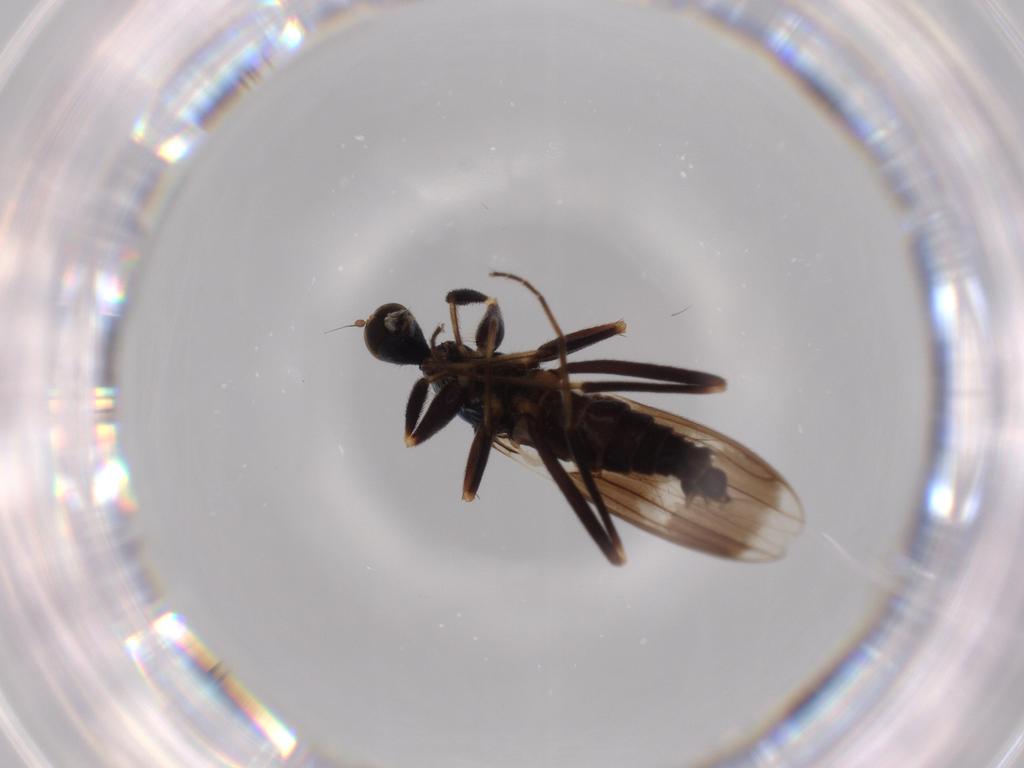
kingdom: Animalia
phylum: Arthropoda
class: Insecta
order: Diptera
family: Hybotidae
